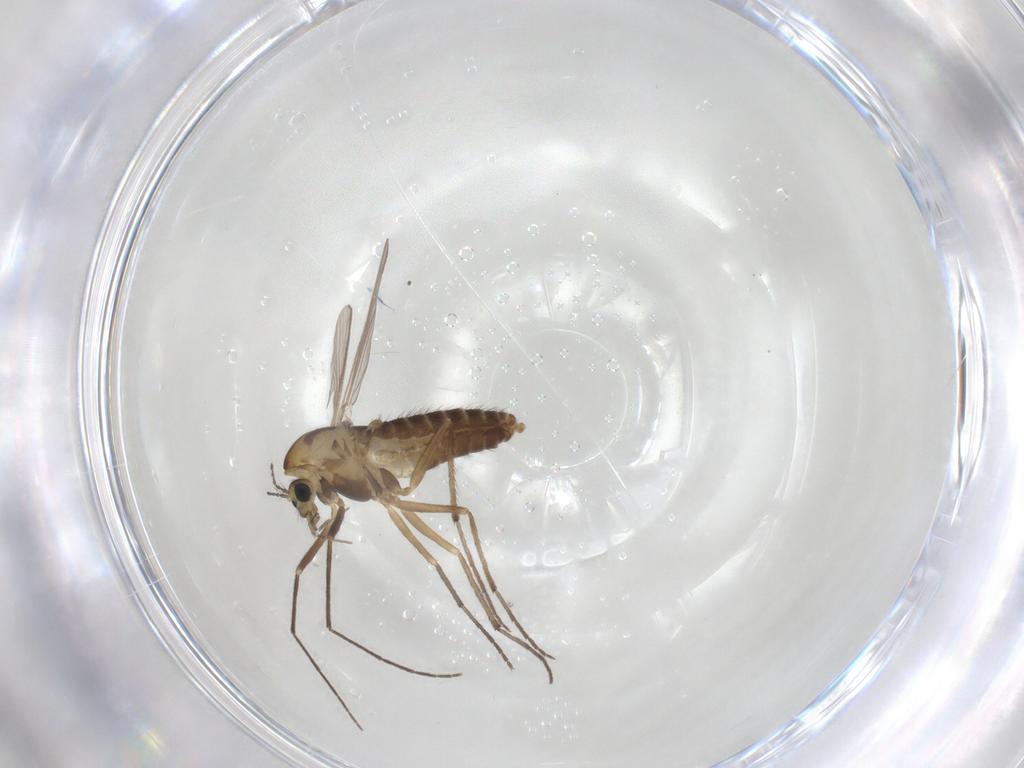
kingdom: Animalia
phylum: Arthropoda
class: Insecta
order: Diptera
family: Chironomidae
